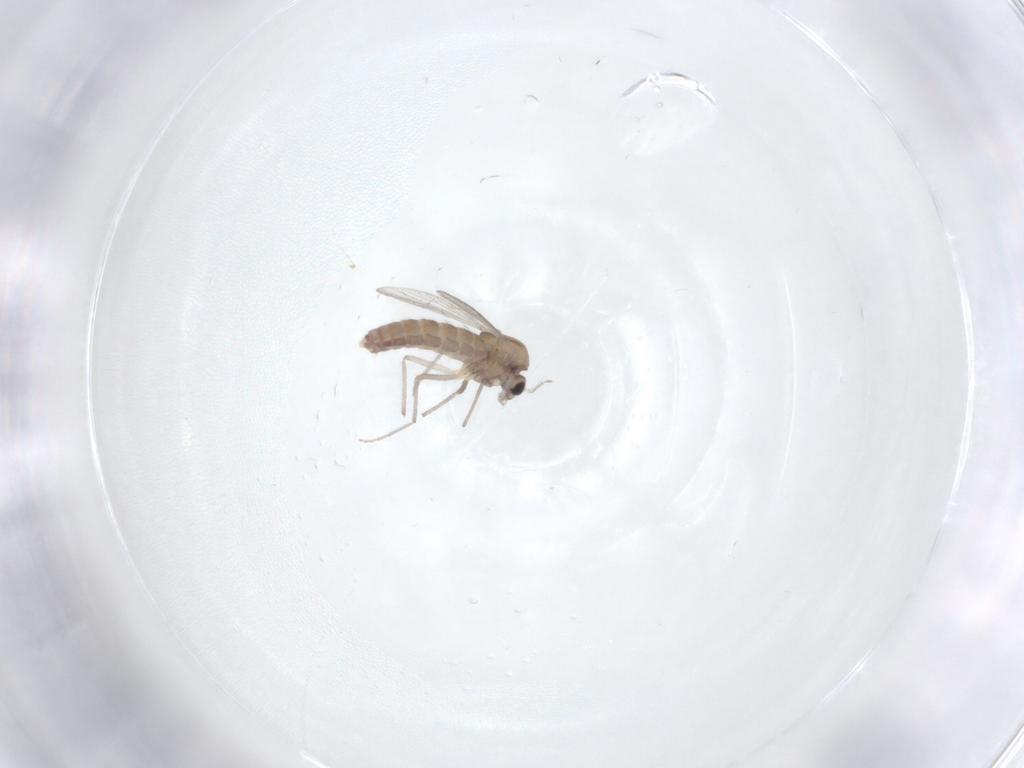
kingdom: Animalia
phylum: Arthropoda
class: Insecta
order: Diptera
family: Chironomidae
